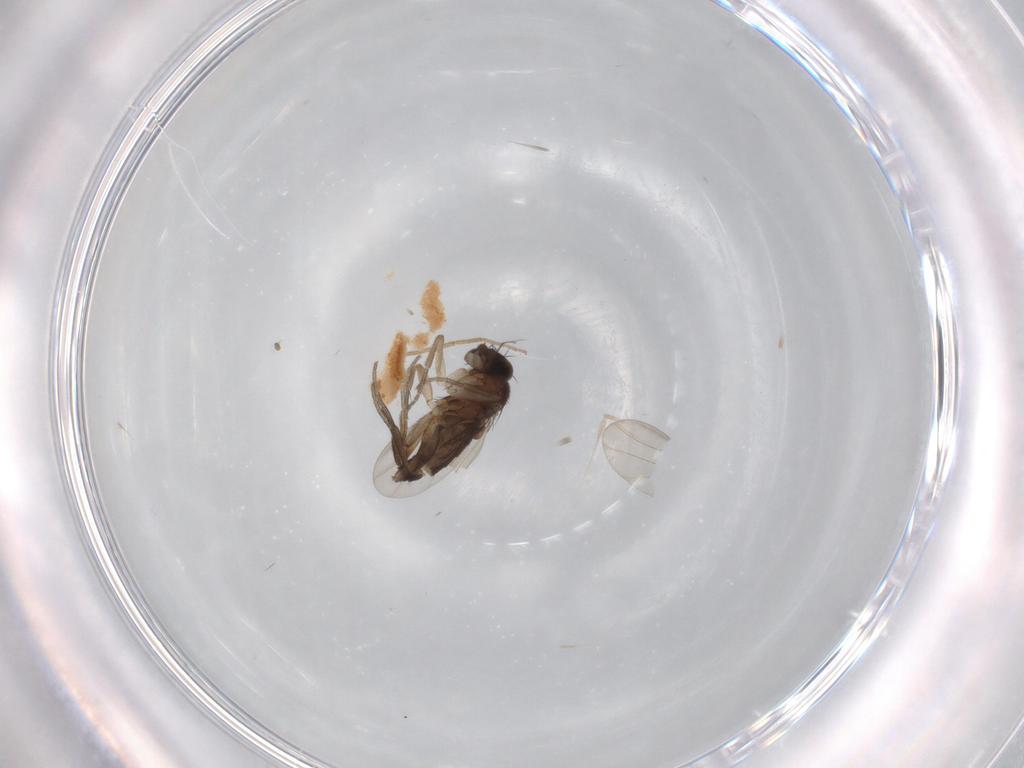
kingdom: Animalia
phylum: Arthropoda
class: Insecta
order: Diptera
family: Phoridae
